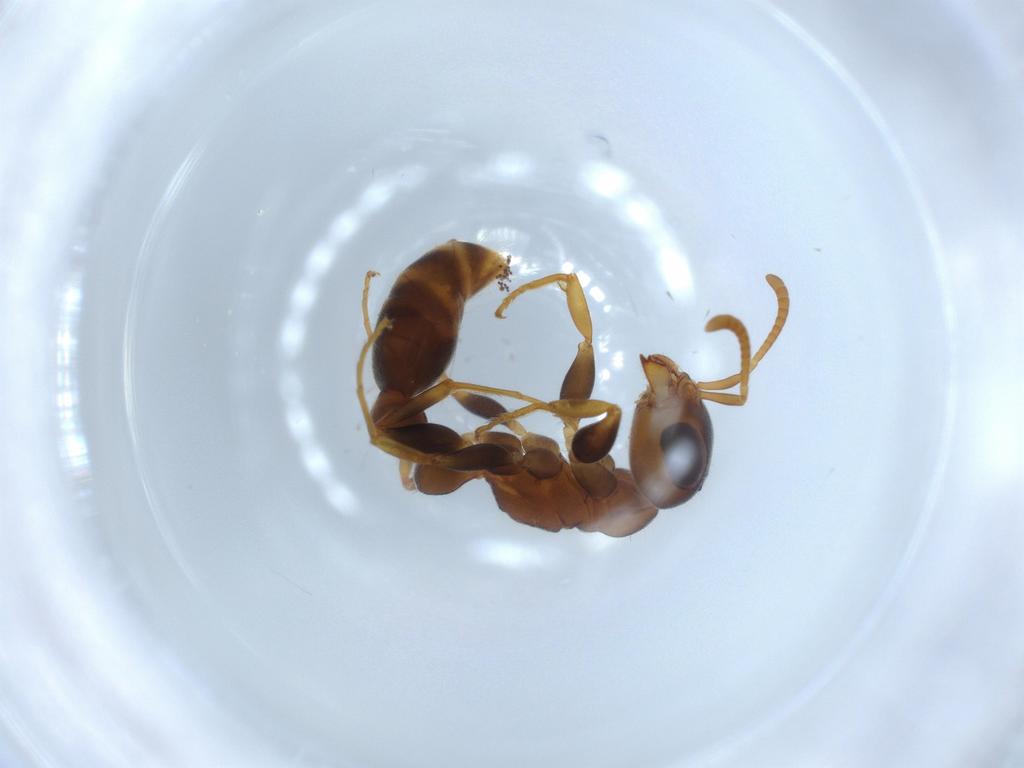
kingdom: Animalia
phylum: Arthropoda
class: Insecta
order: Hymenoptera
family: Formicidae
